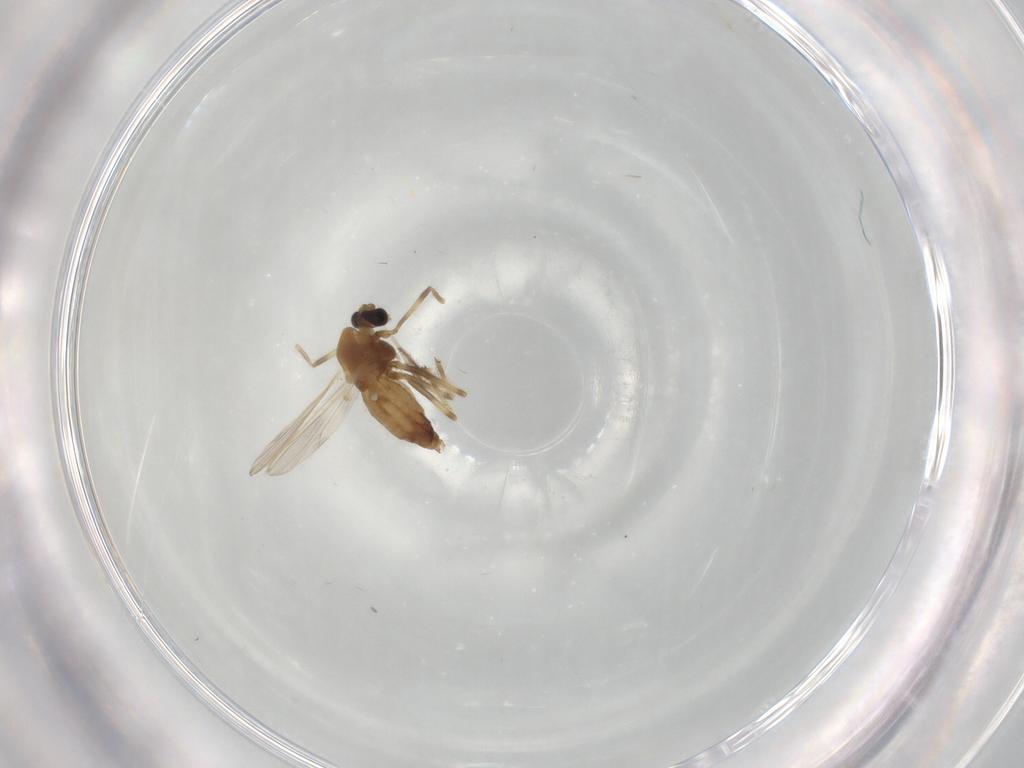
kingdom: Animalia
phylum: Arthropoda
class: Insecta
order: Diptera
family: Chironomidae
